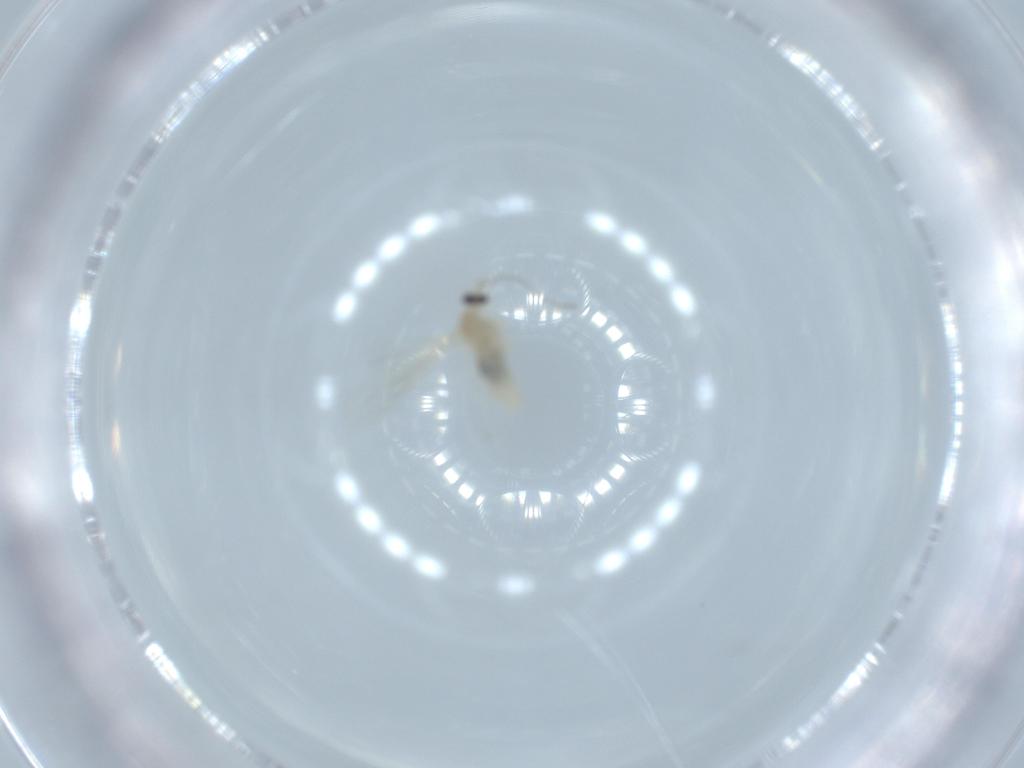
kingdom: Animalia
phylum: Arthropoda
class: Insecta
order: Diptera
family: Cecidomyiidae
